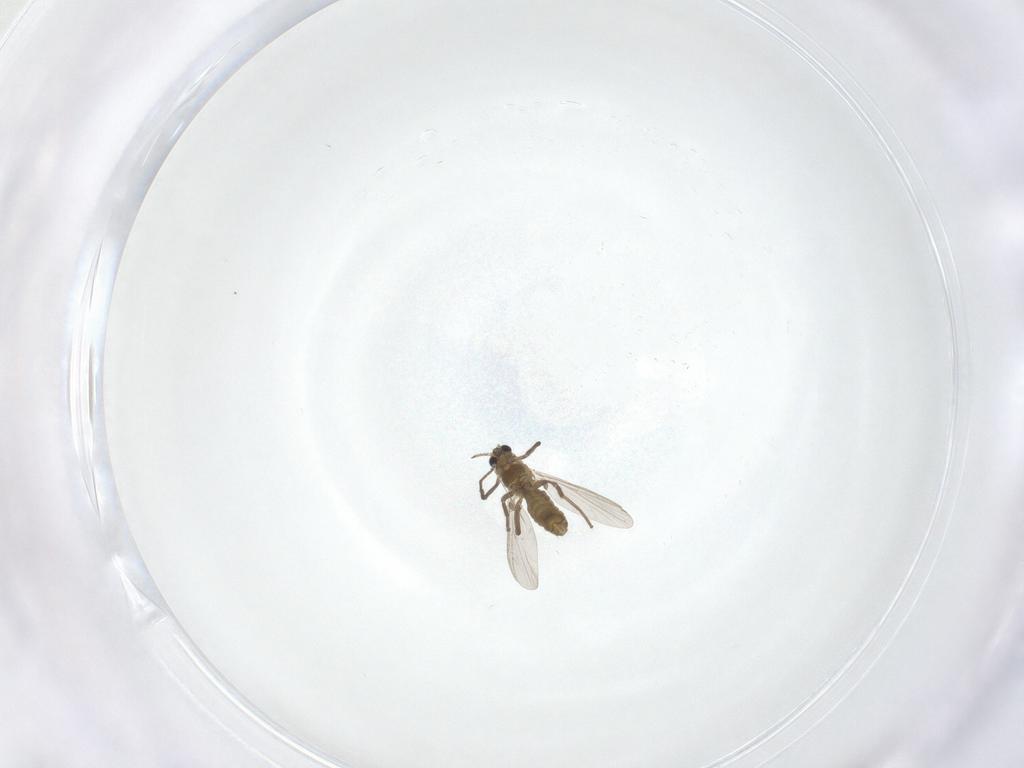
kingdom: Animalia
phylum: Arthropoda
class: Insecta
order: Diptera
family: Chironomidae
